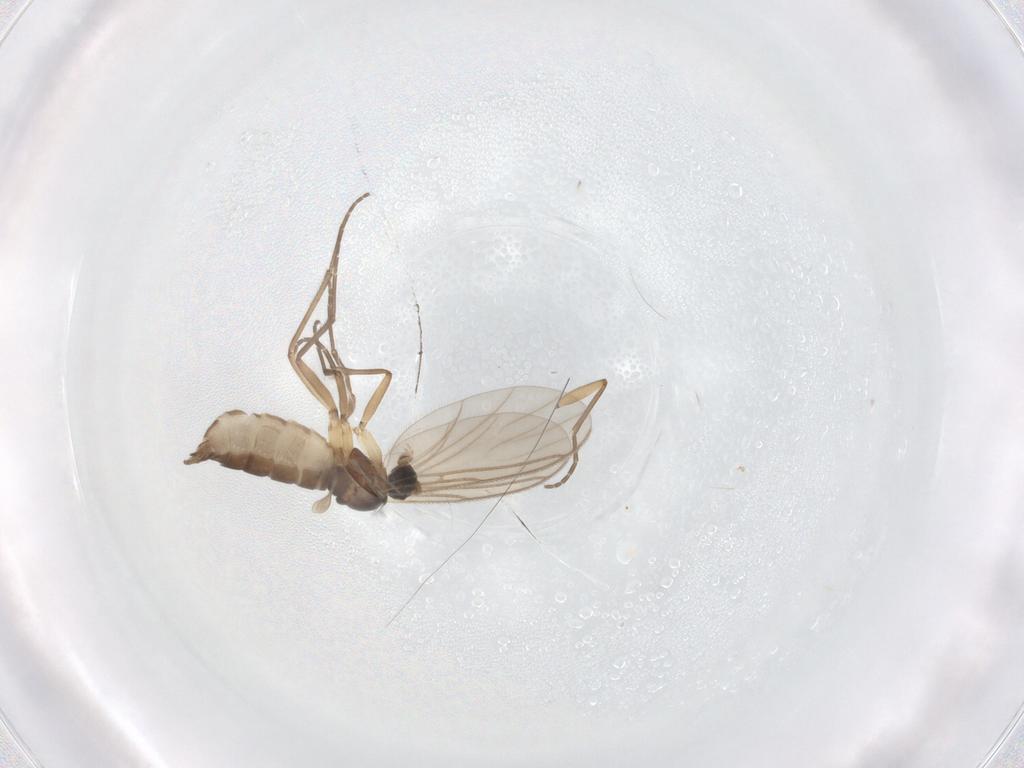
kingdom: Animalia
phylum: Arthropoda
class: Insecta
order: Diptera
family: Sciaridae
